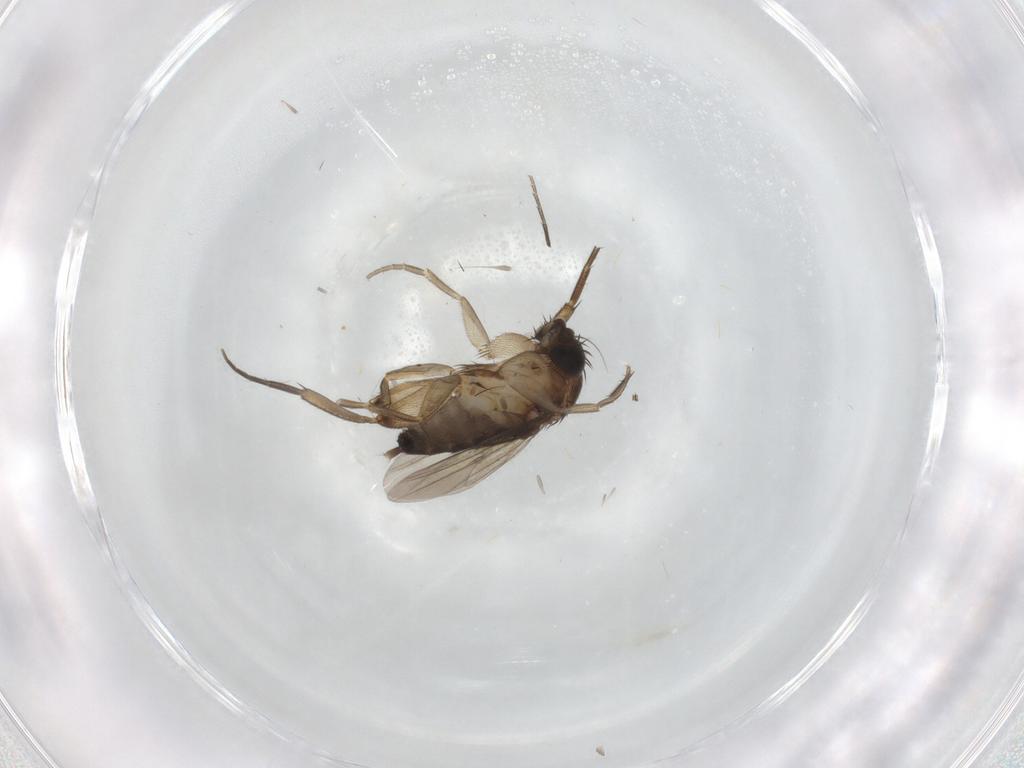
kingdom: Animalia
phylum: Arthropoda
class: Insecta
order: Diptera
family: Phoridae
